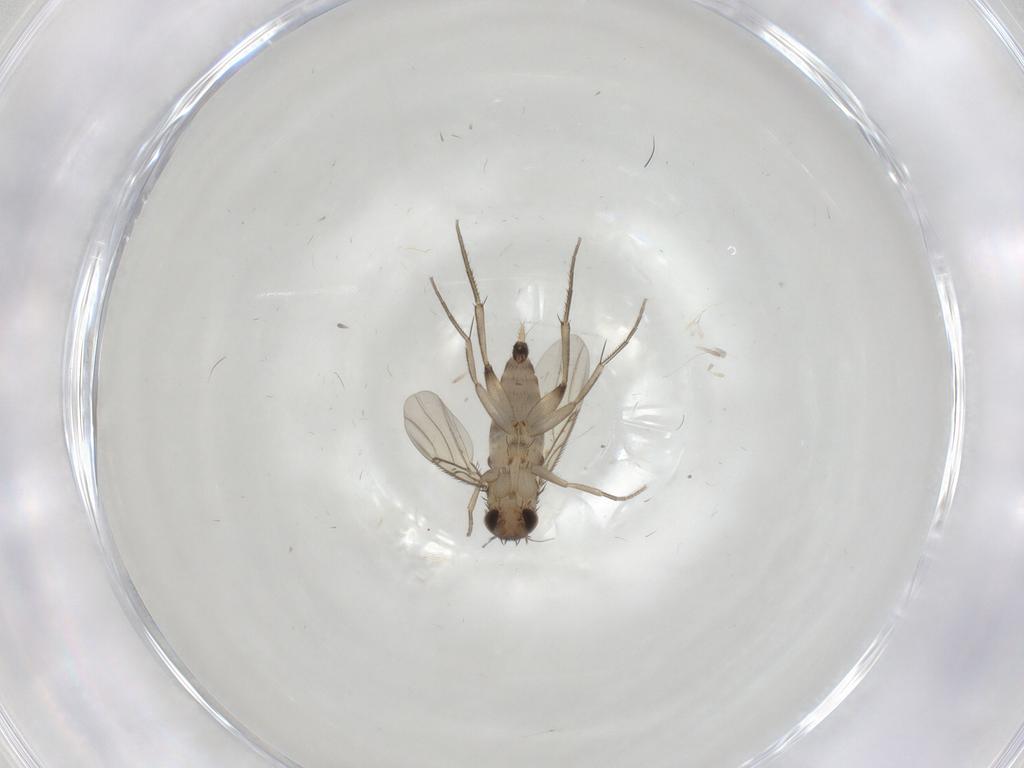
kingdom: Animalia
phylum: Arthropoda
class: Insecta
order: Diptera
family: Phoridae
